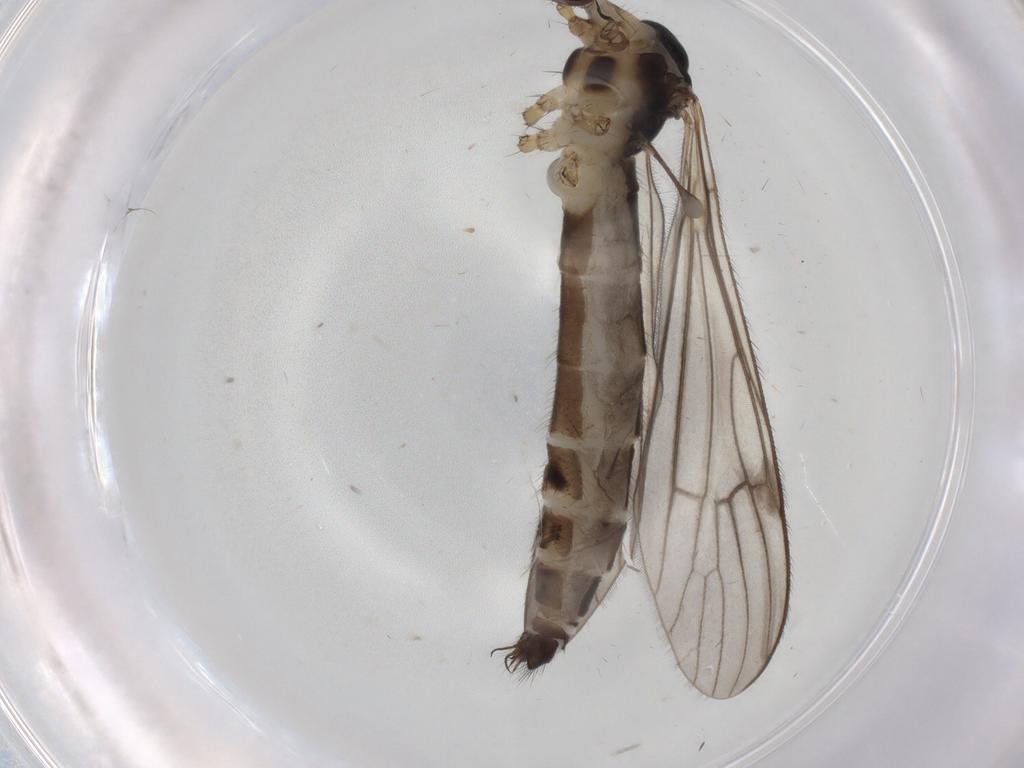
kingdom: Animalia
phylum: Arthropoda
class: Insecta
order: Diptera
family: Chironomidae
